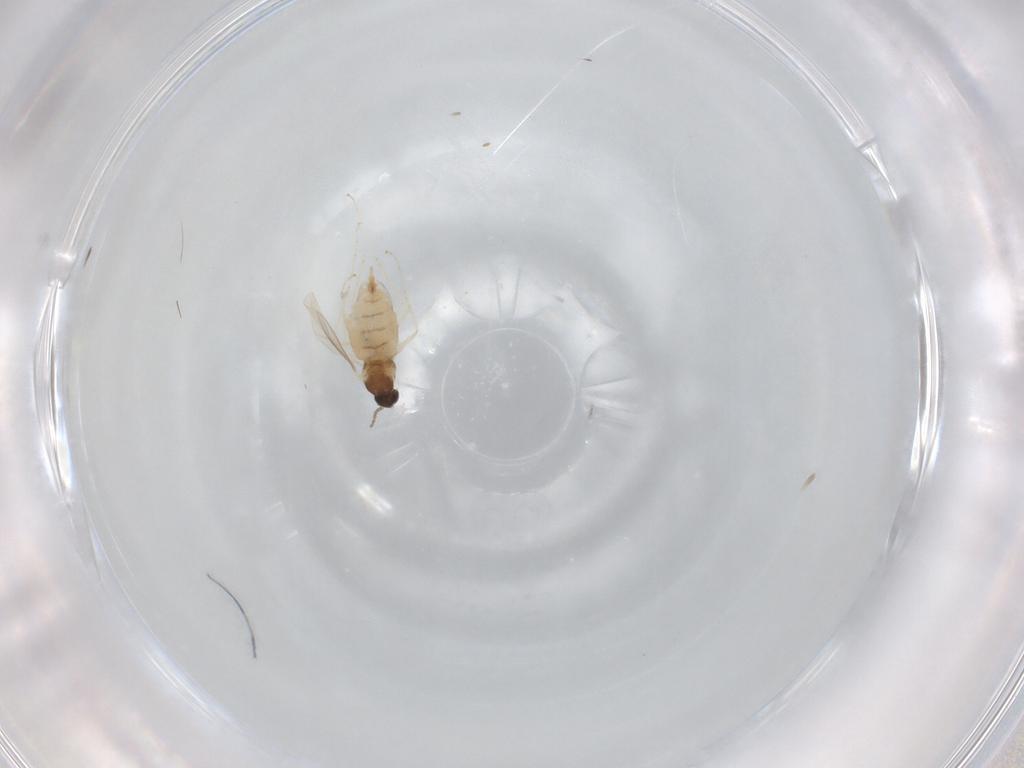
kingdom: Animalia
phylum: Arthropoda
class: Insecta
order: Diptera
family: Cecidomyiidae
